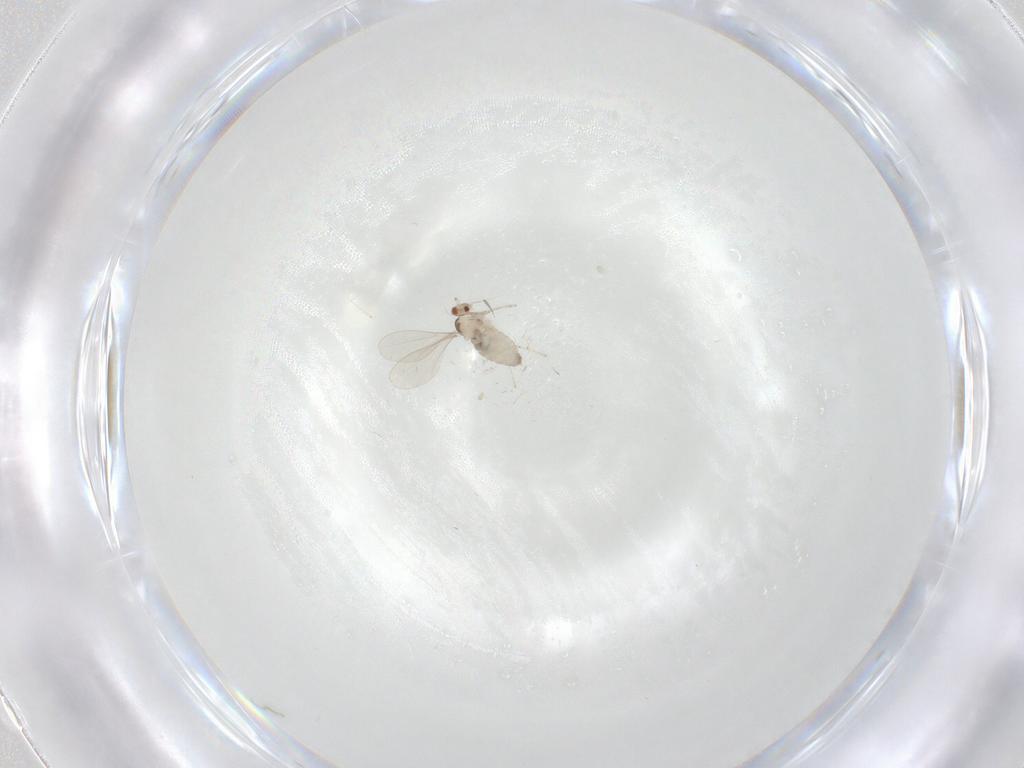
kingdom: Animalia
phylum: Arthropoda
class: Insecta
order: Diptera
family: Cecidomyiidae
